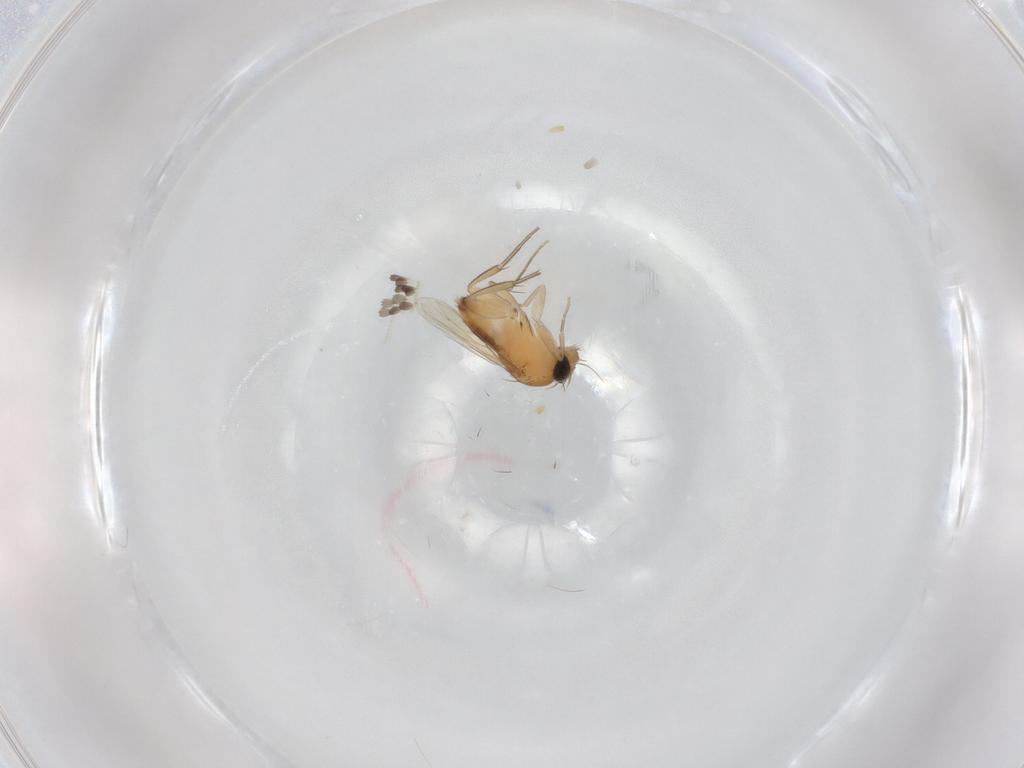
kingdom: Animalia
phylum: Arthropoda
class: Insecta
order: Diptera
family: Phoridae
